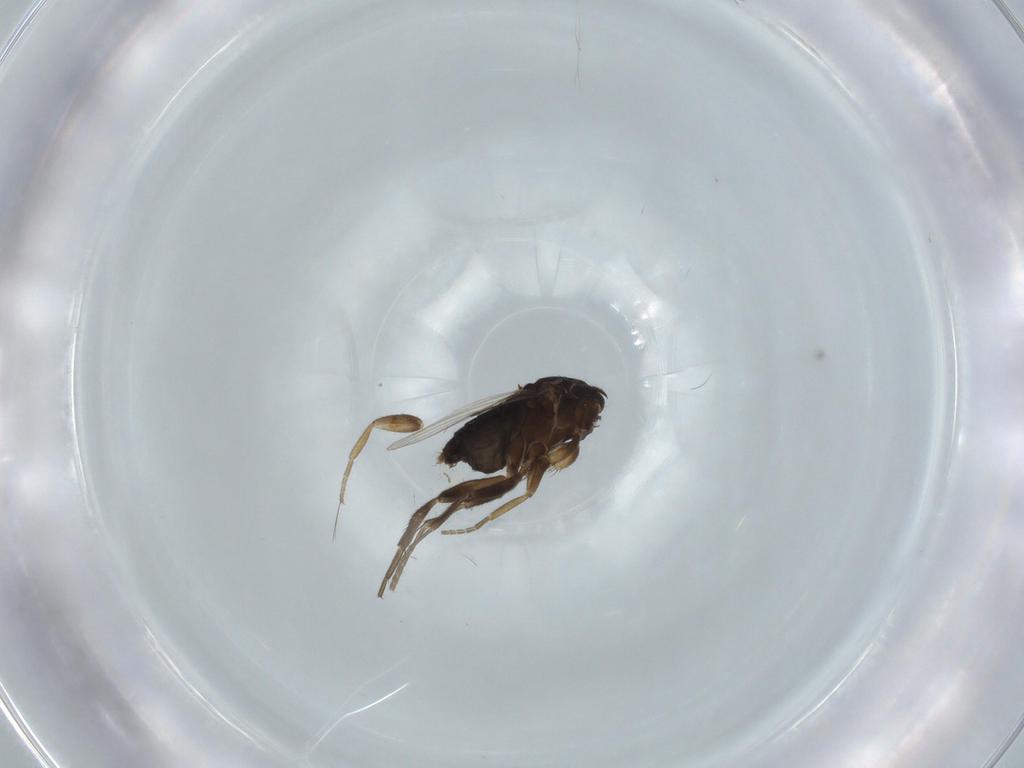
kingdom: Animalia
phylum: Arthropoda
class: Insecta
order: Diptera
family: Phoridae
